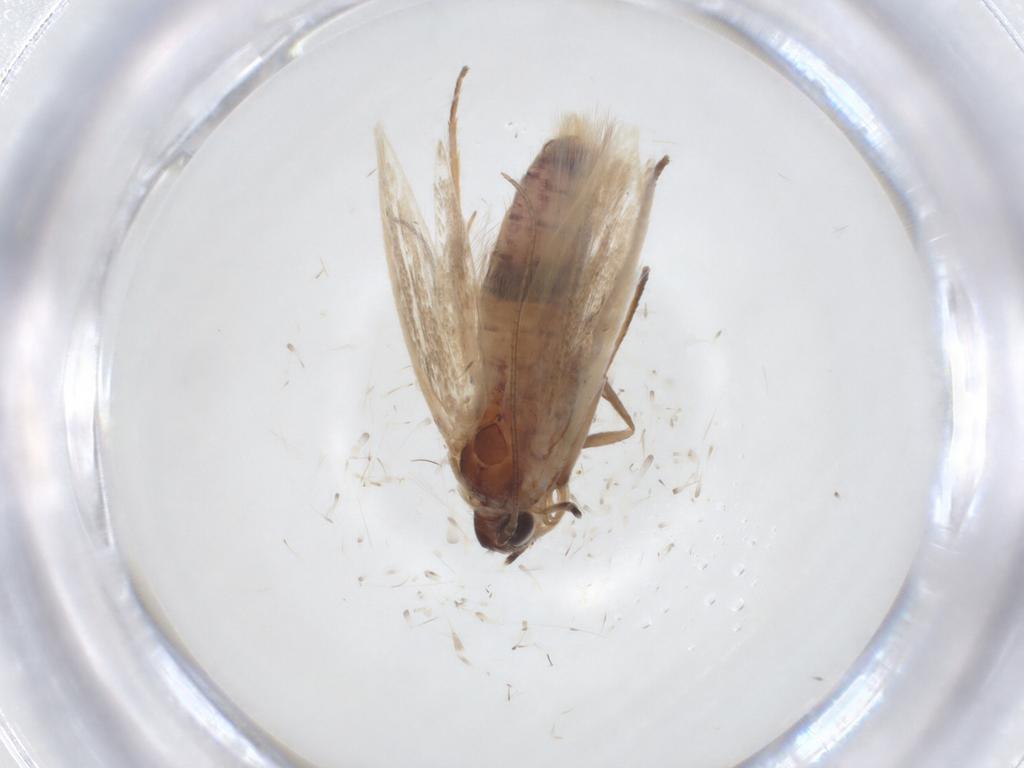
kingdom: Animalia
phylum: Arthropoda
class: Insecta
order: Lepidoptera
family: Scythrididae
